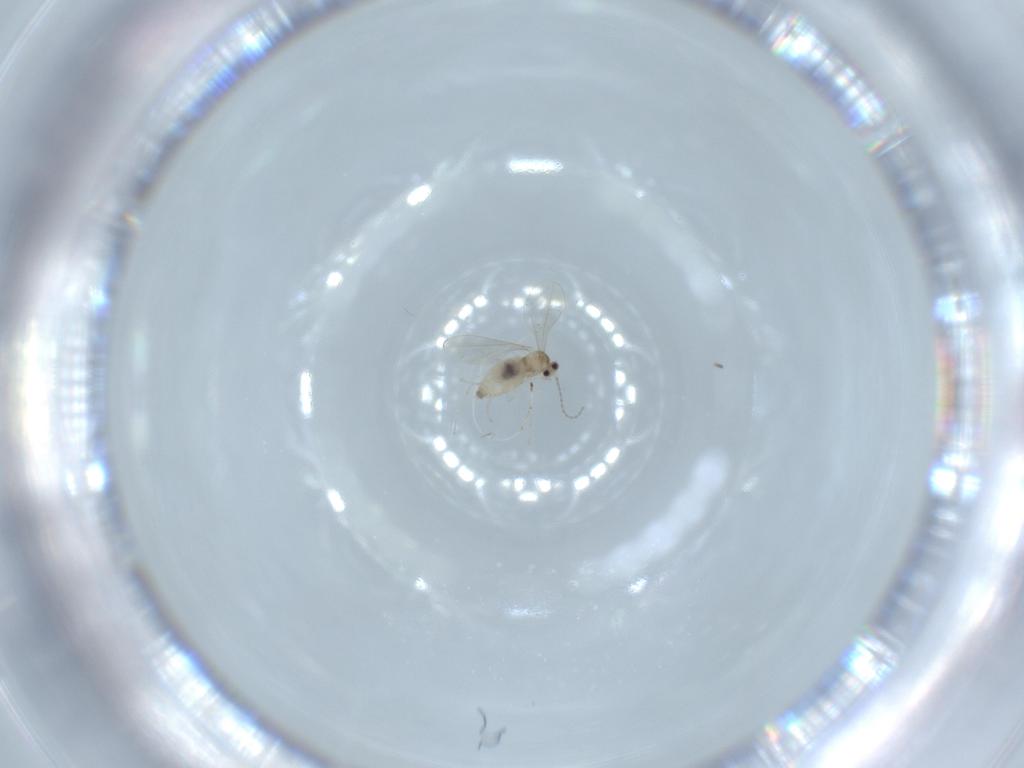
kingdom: Animalia
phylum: Arthropoda
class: Insecta
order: Diptera
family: Cecidomyiidae
